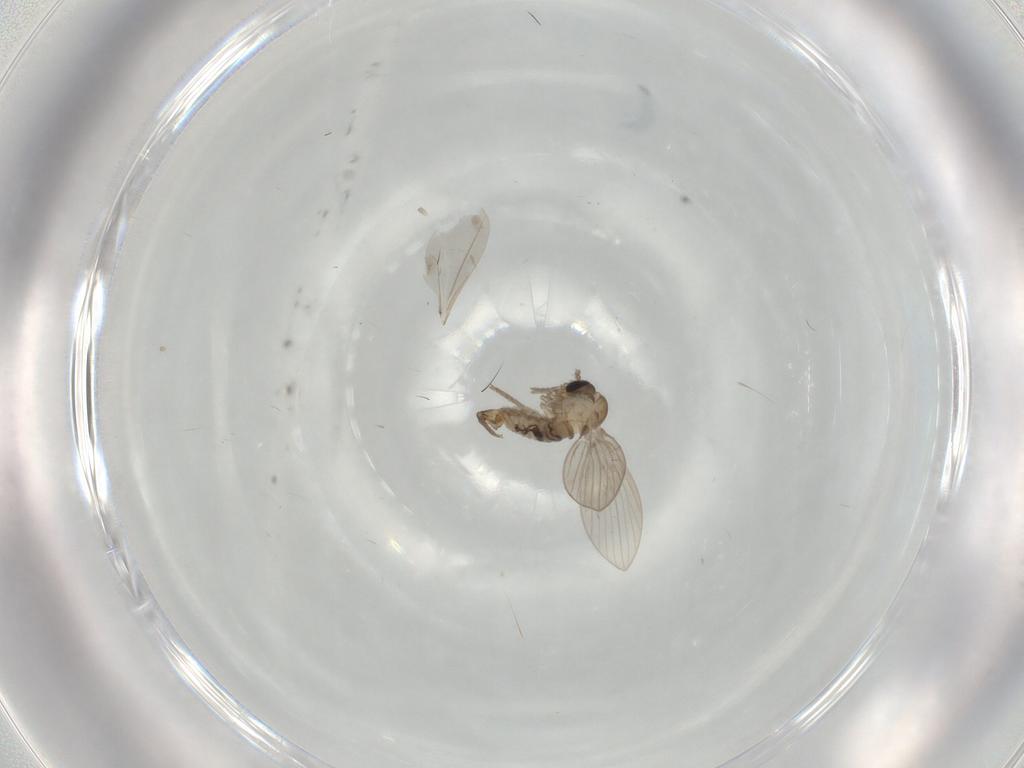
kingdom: Animalia
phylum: Arthropoda
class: Insecta
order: Diptera
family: Psychodidae
